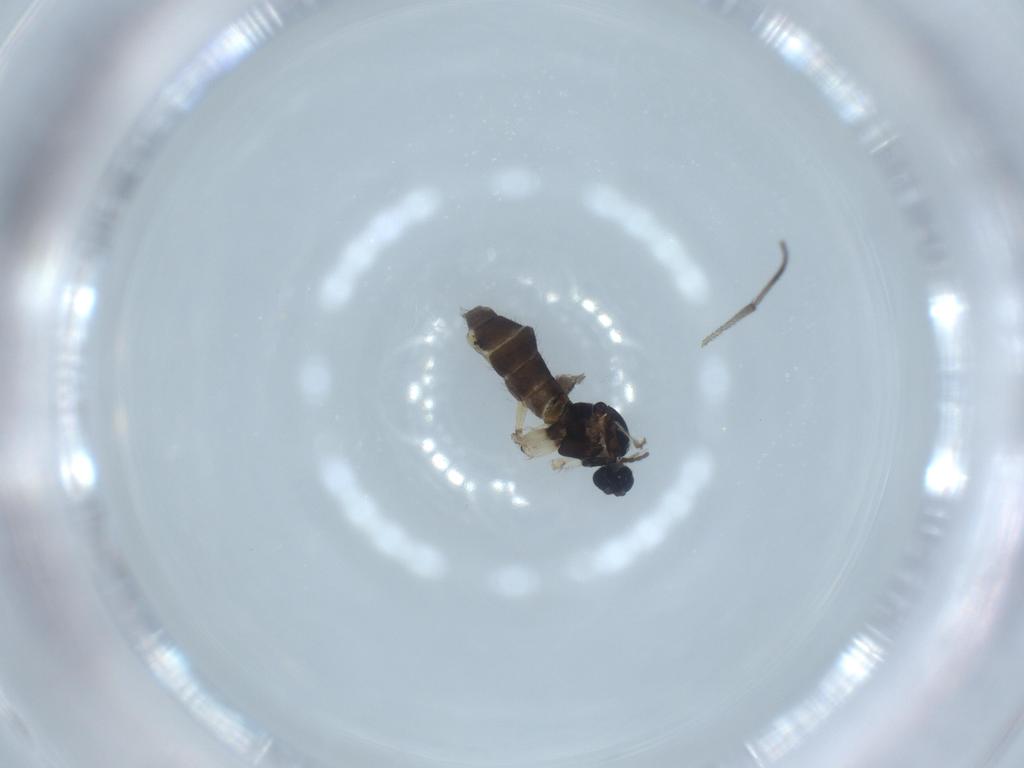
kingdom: Animalia
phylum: Arthropoda
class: Insecta
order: Diptera
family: Sciaridae
